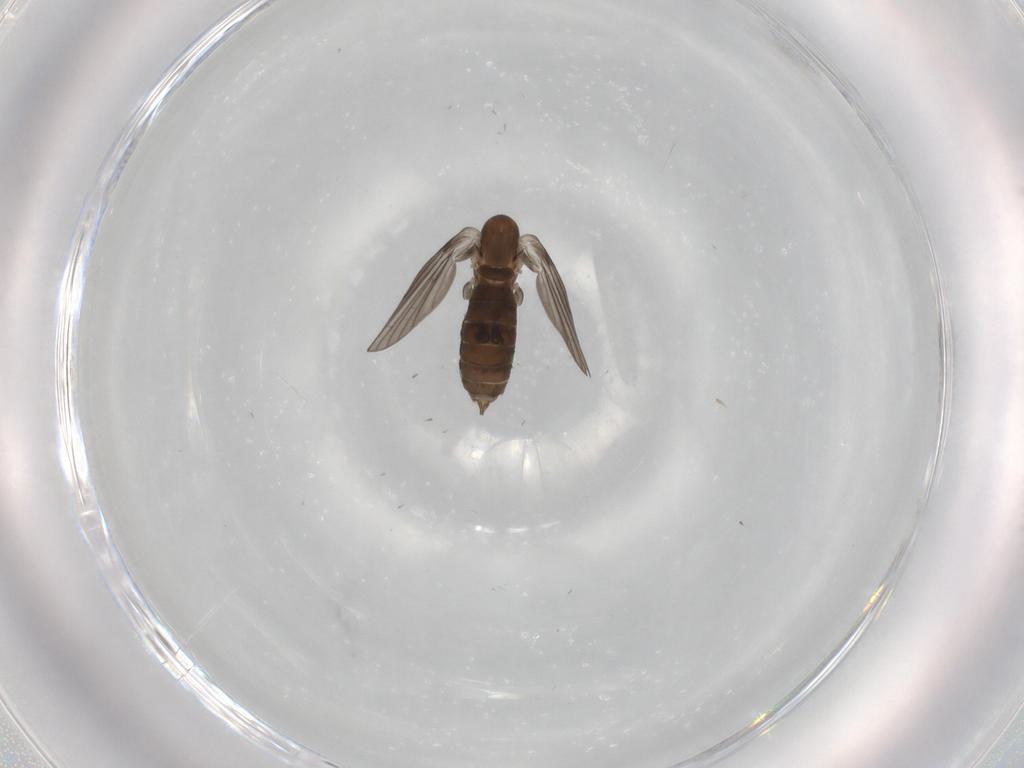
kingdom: Animalia
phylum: Arthropoda
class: Insecta
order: Diptera
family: Psychodidae
